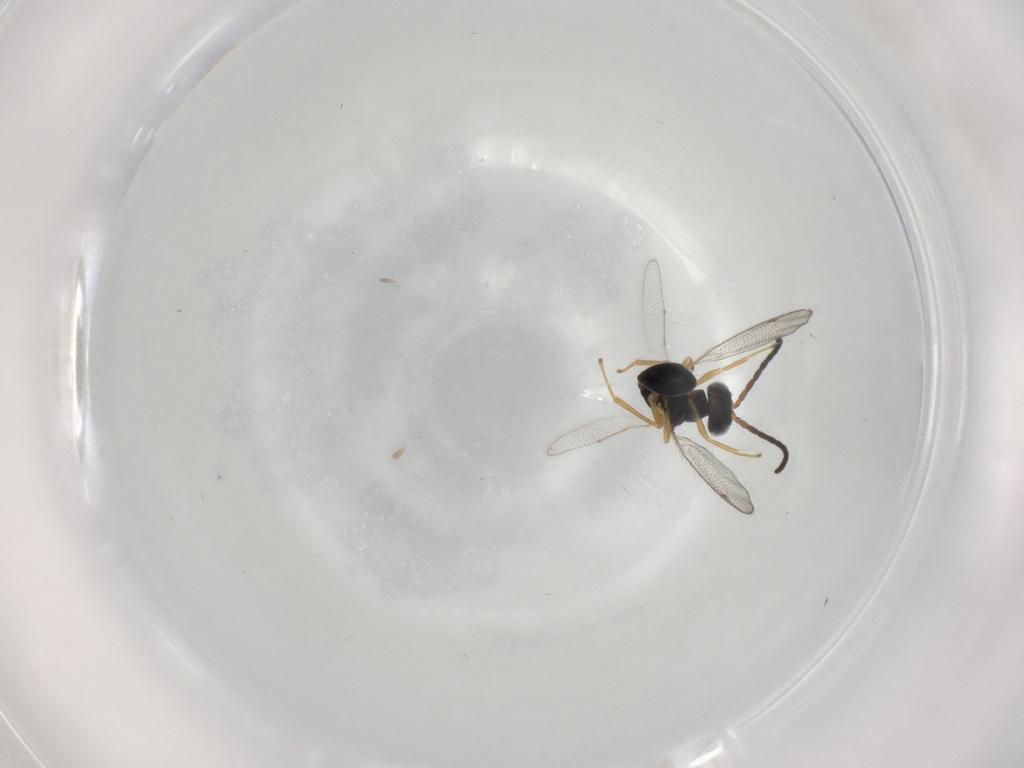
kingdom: Animalia
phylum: Arthropoda
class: Insecta
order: Hymenoptera
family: Diparidae
